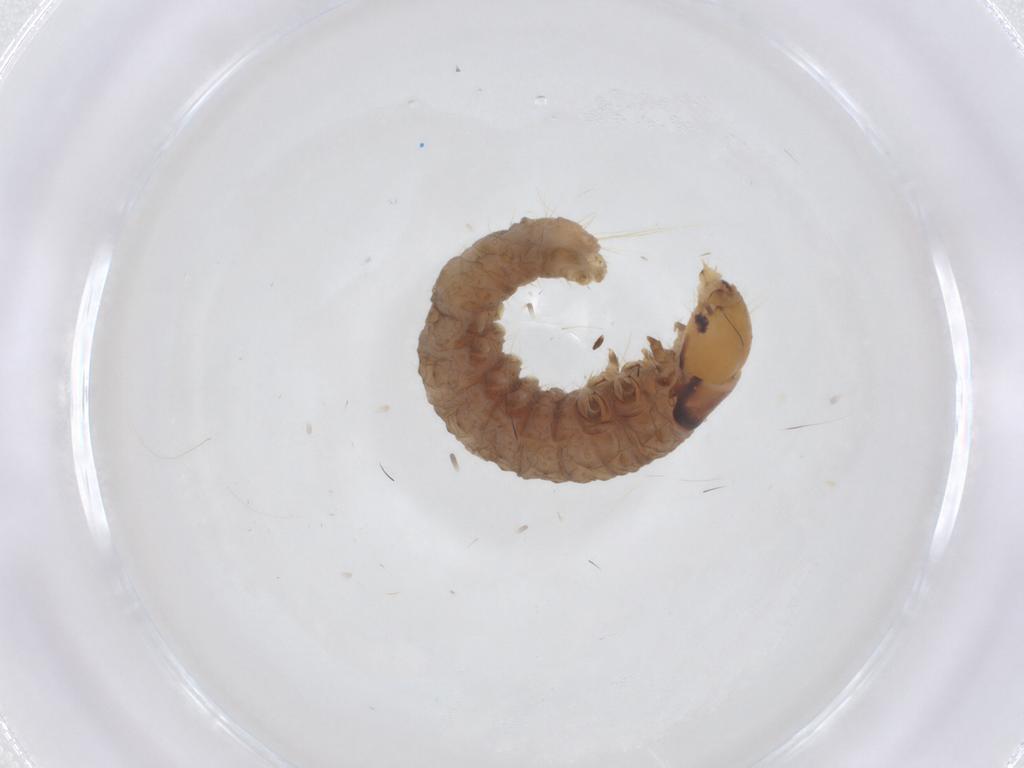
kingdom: Animalia
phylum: Arthropoda
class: Insecta
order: Lepidoptera
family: Tortricidae
